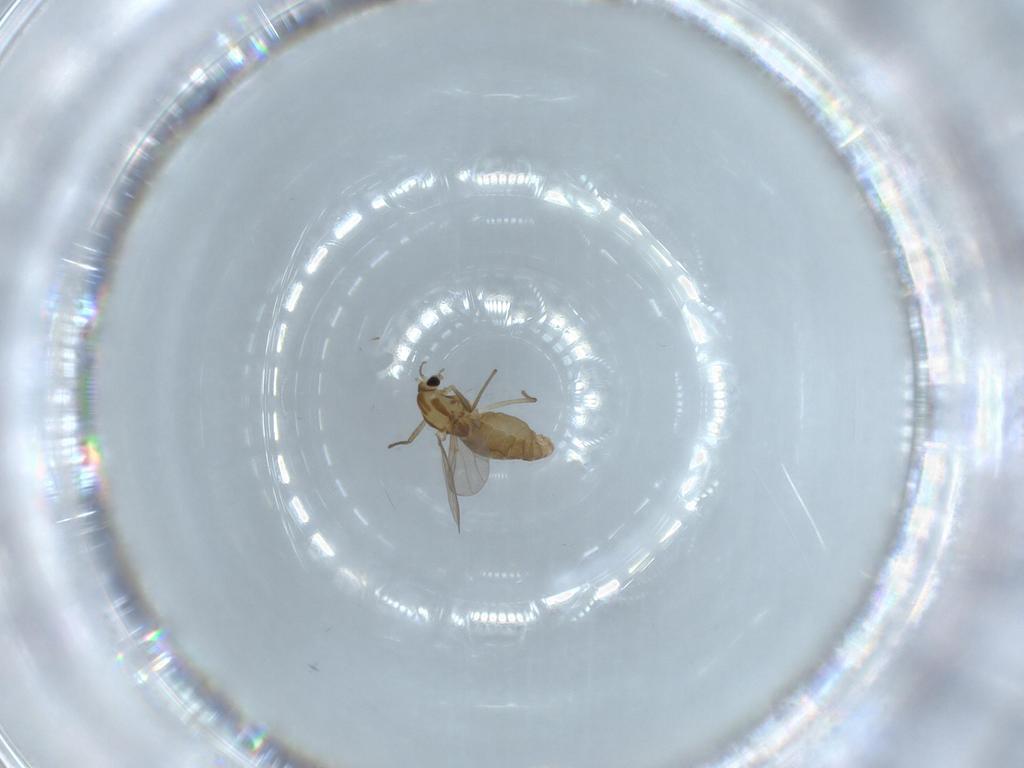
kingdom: Animalia
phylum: Arthropoda
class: Insecta
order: Diptera
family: Chironomidae
